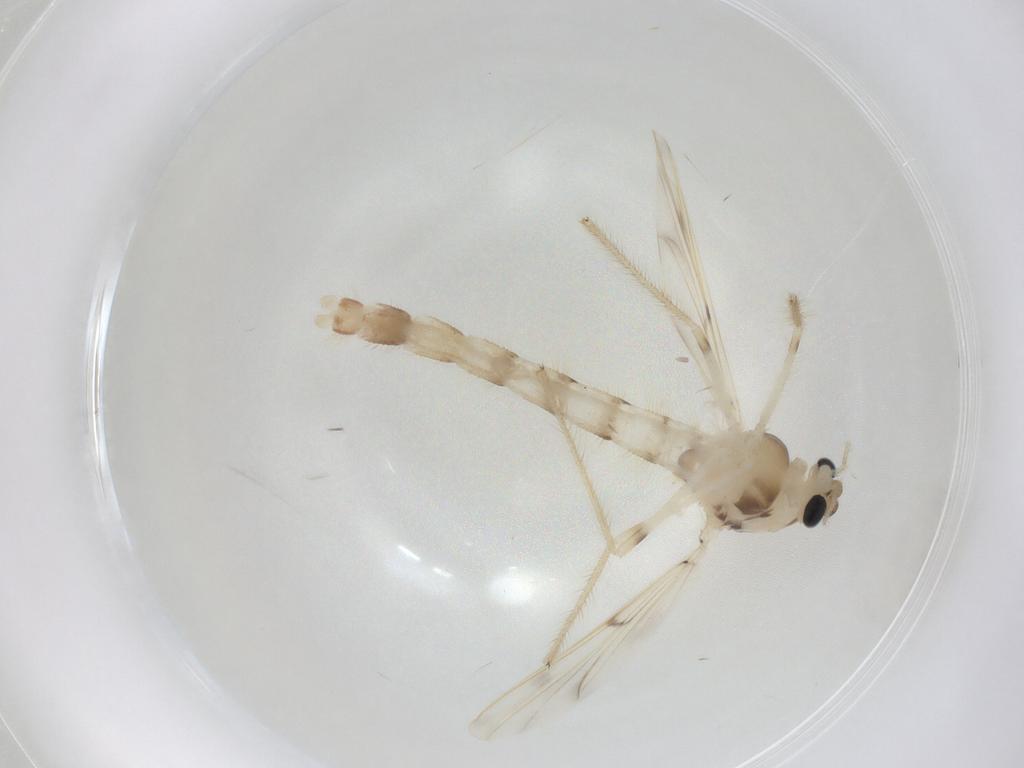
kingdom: Animalia
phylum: Arthropoda
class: Insecta
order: Diptera
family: Chironomidae
